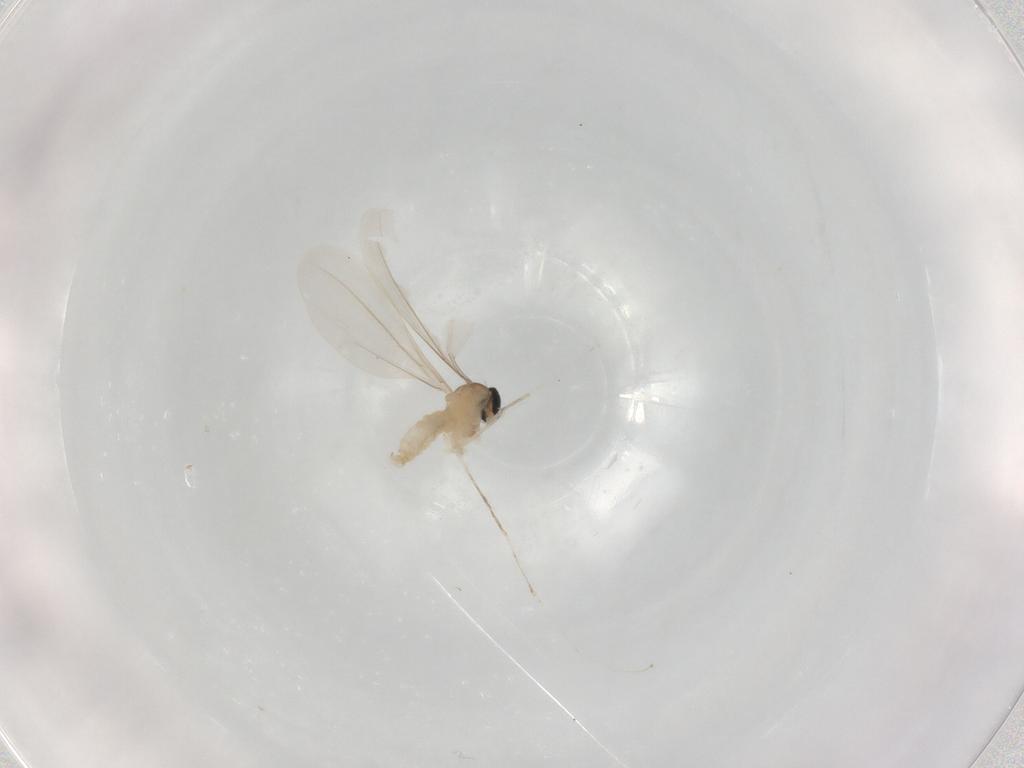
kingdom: Animalia
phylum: Arthropoda
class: Insecta
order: Diptera
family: Cecidomyiidae
